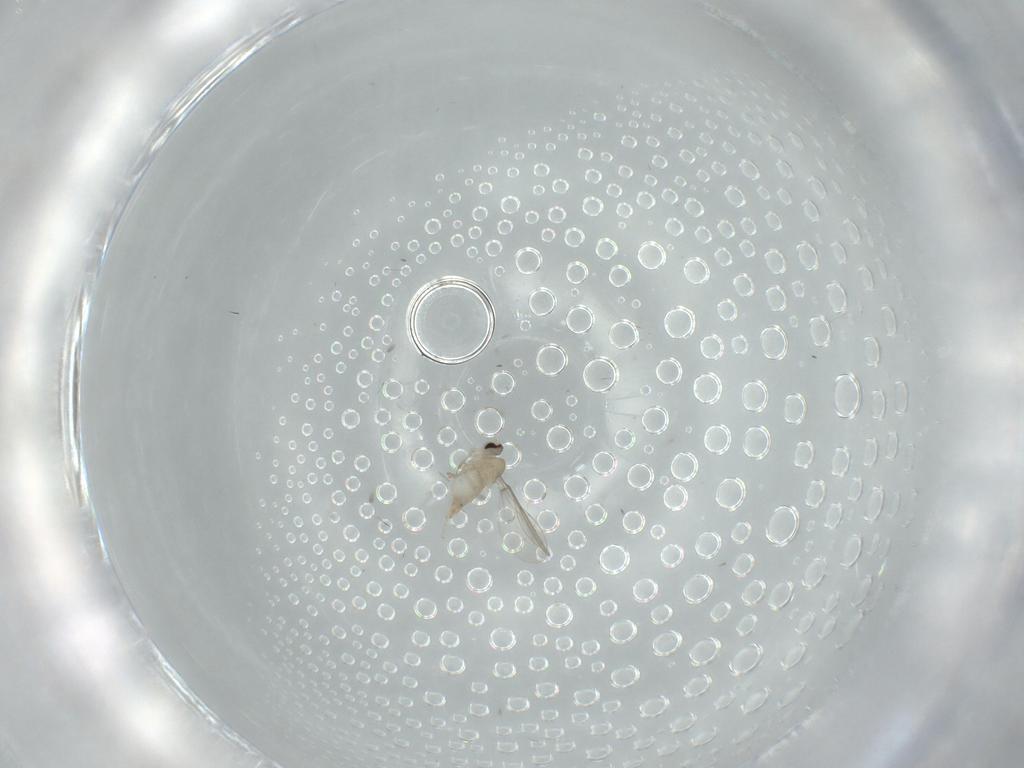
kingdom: Animalia
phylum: Arthropoda
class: Insecta
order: Diptera
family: Cecidomyiidae
